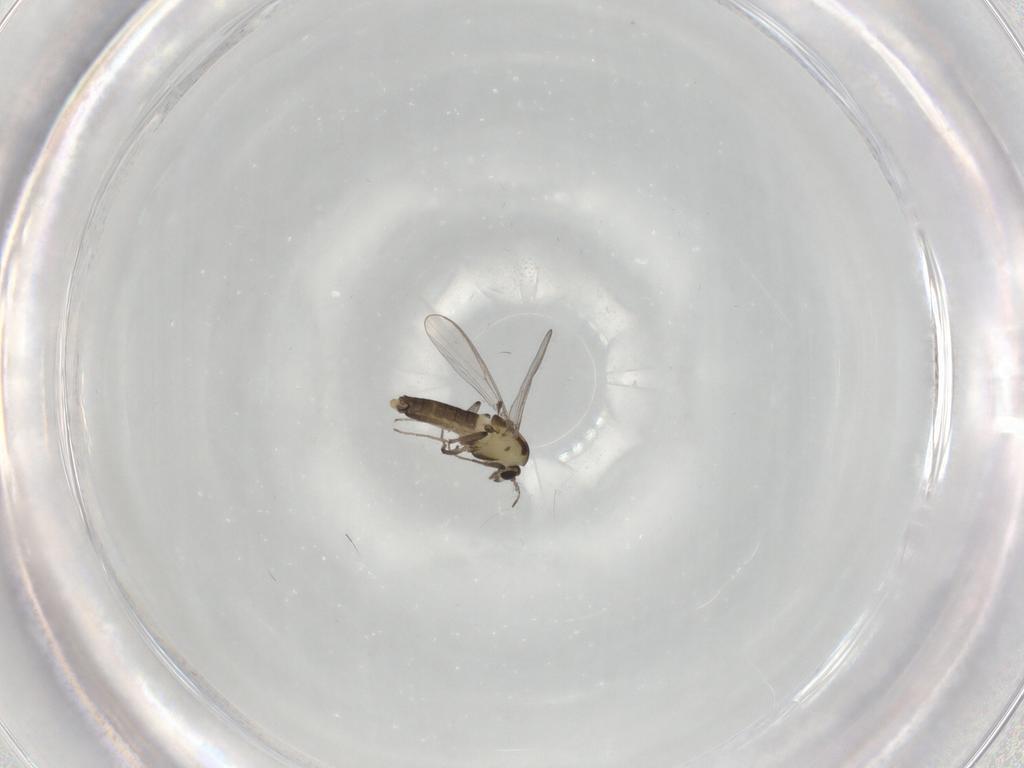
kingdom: Animalia
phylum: Arthropoda
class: Insecta
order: Diptera
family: Chironomidae
